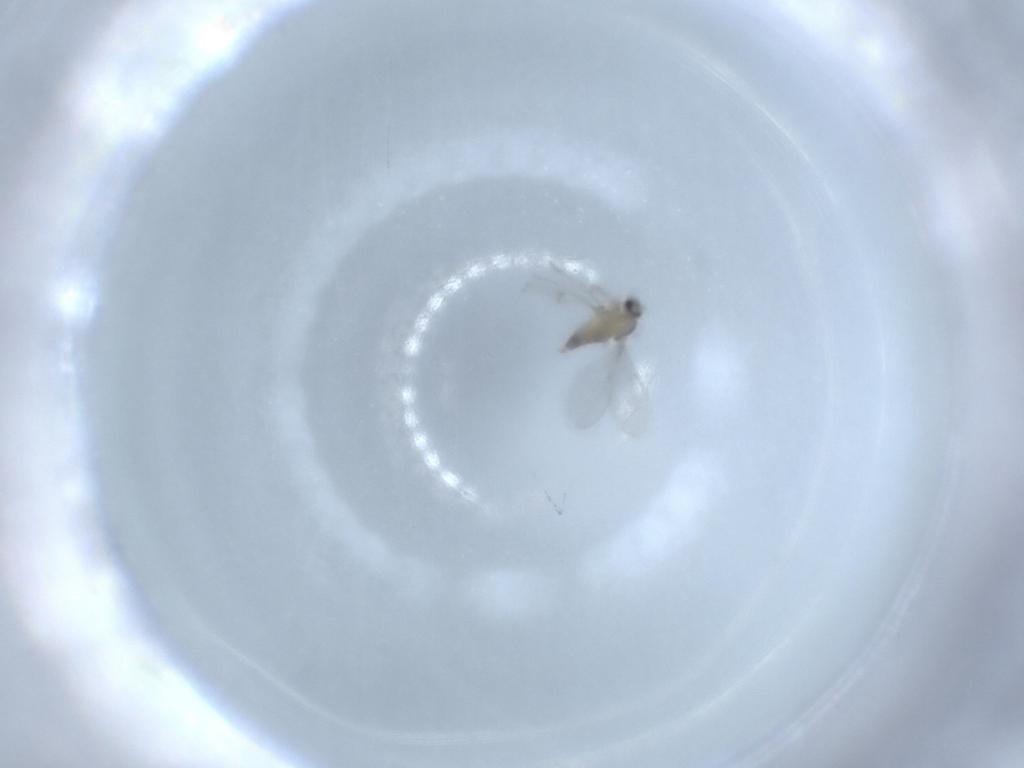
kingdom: Animalia
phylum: Arthropoda
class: Insecta
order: Diptera
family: Cecidomyiidae
